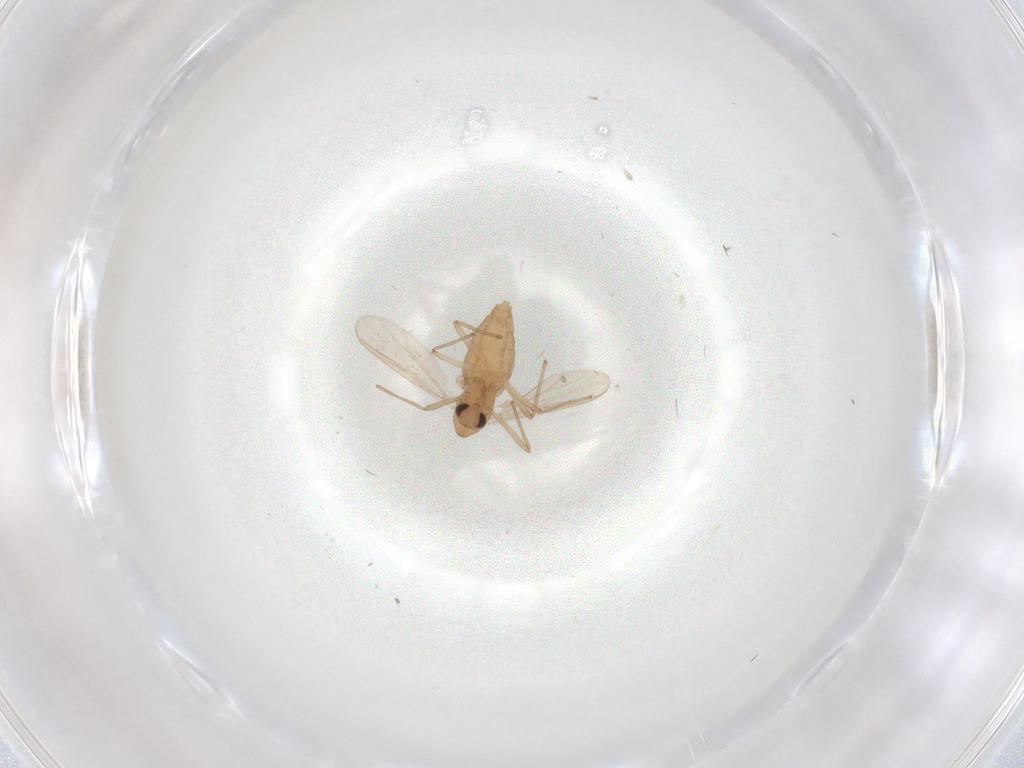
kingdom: Animalia
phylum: Arthropoda
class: Insecta
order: Diptera
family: Chironomidae
